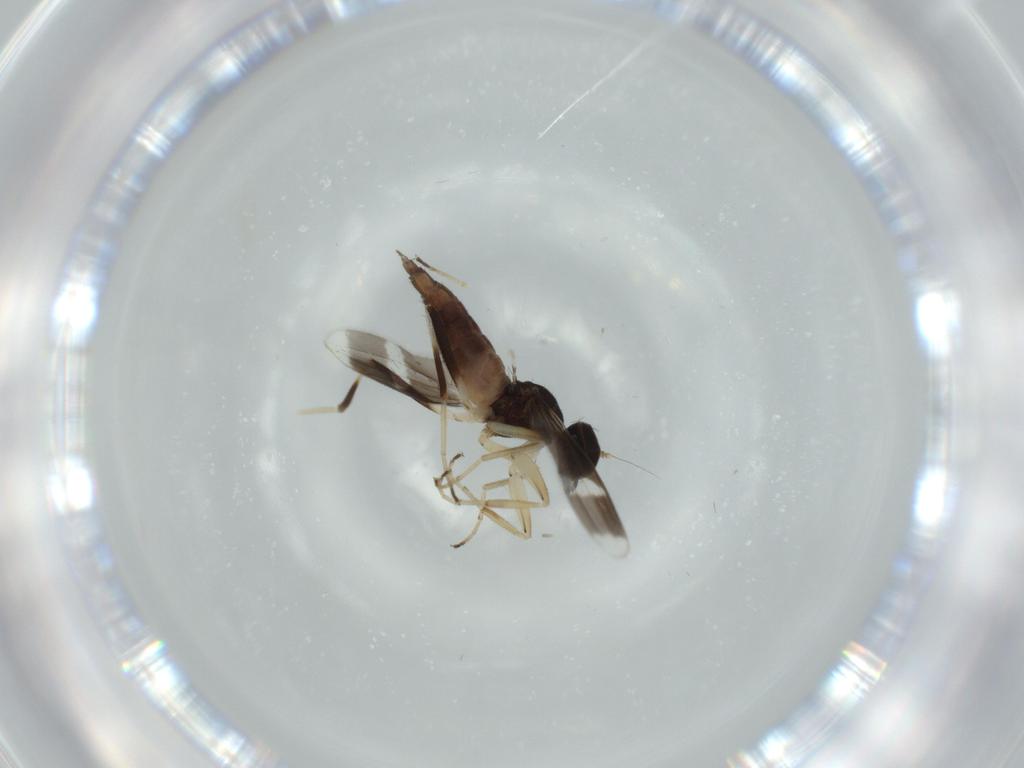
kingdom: Animalia
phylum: Arthropoda
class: Insecta
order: Diptera
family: Hybotidae
